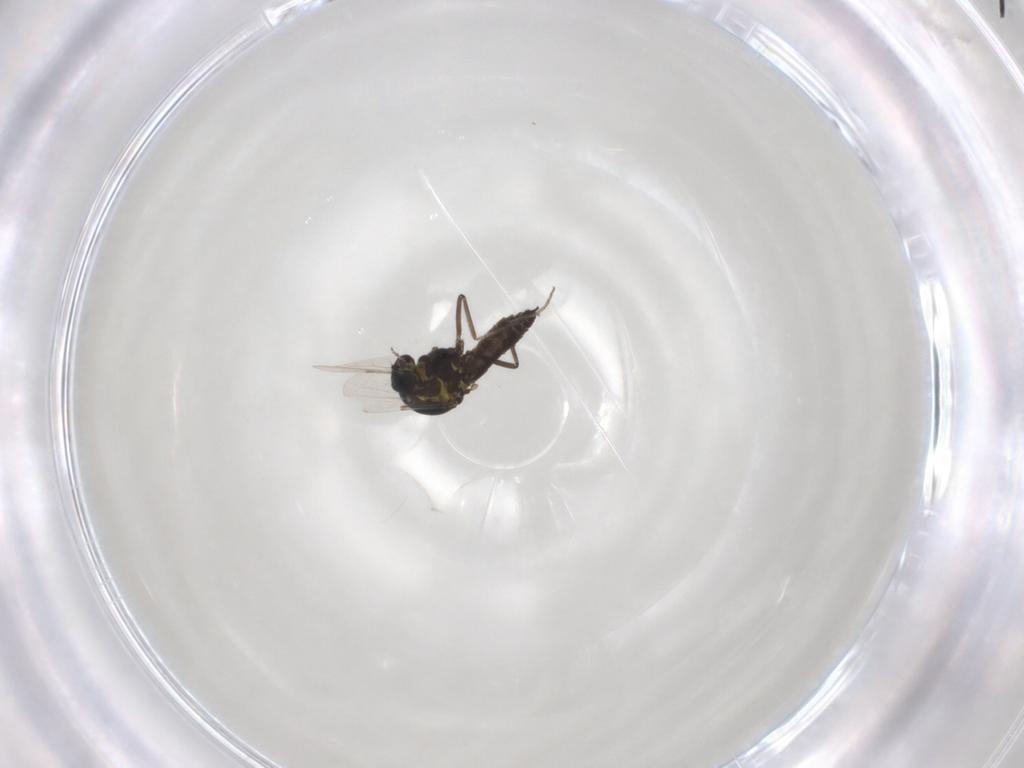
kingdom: Animalia
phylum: Arthropoda
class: Insecta
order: Diptera
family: Ceratopogonidae
